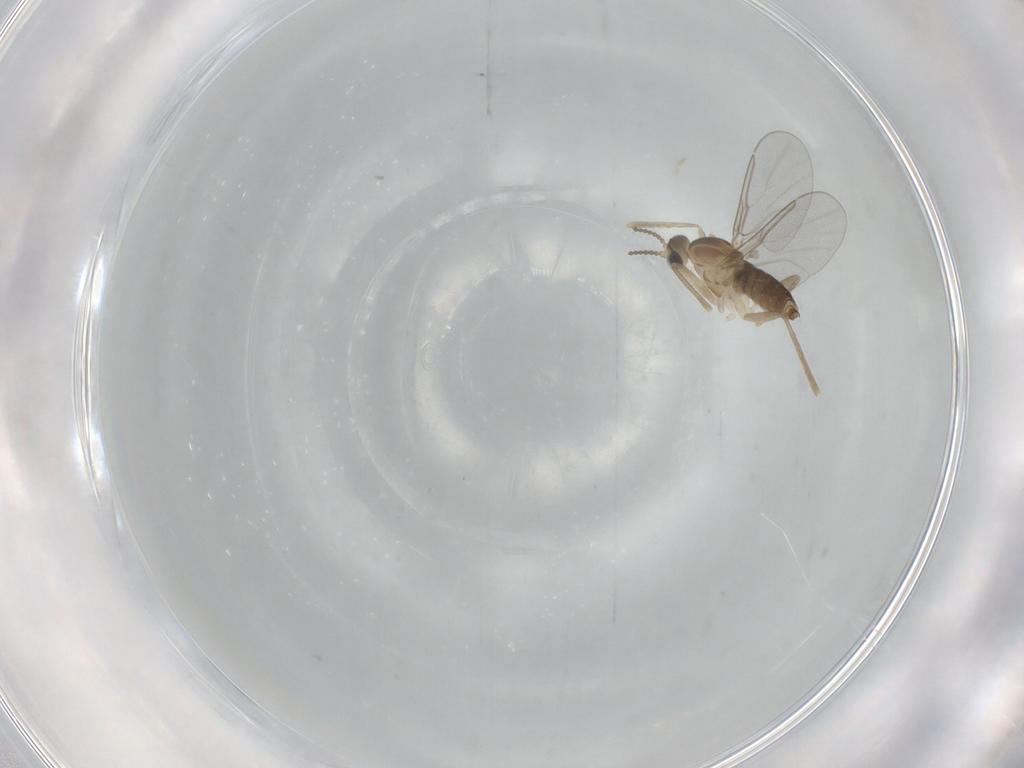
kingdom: Animalia
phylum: Arthropoda
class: Insecta
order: Diptera
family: Cecidomyiidae
